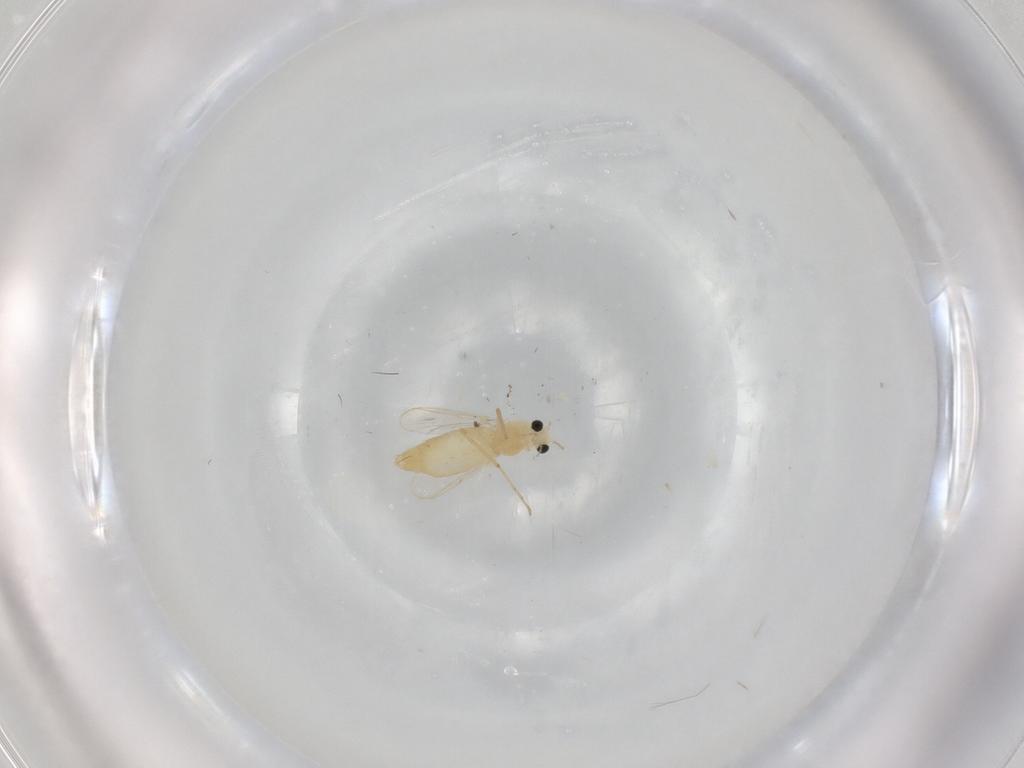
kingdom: Animalia
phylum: Arthropoda
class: Insecta
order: Diptera
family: Chironomidae
